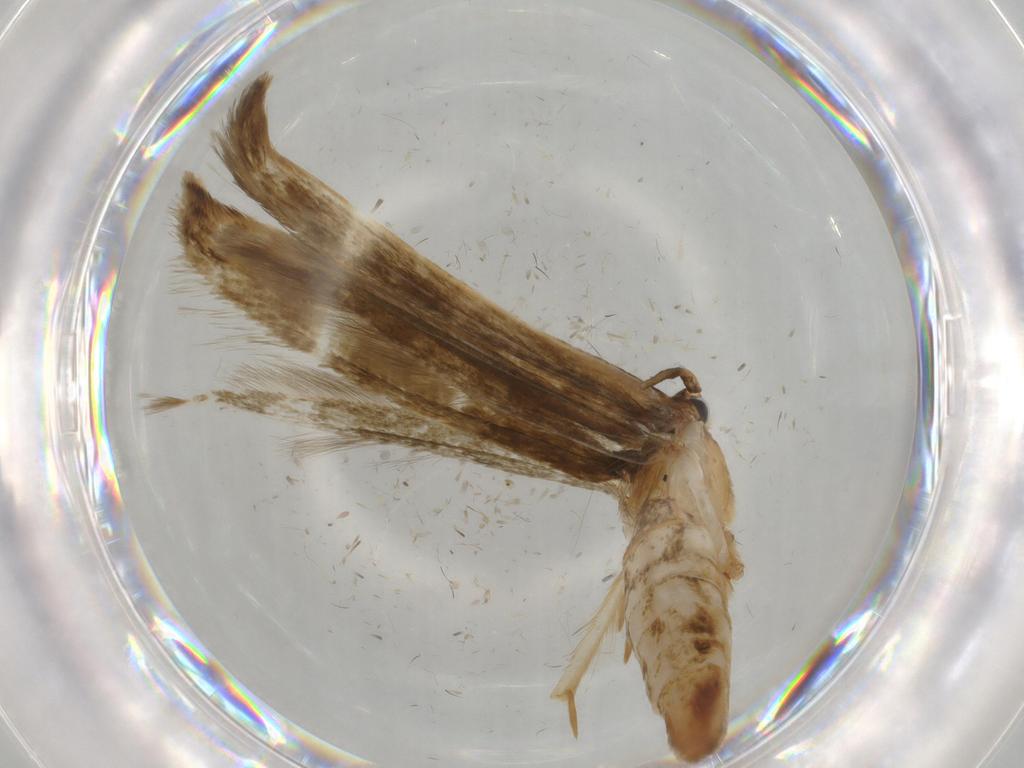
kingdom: Animalia
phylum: Arthropoda
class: Insecta
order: Lepidoptera
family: Tineidae
